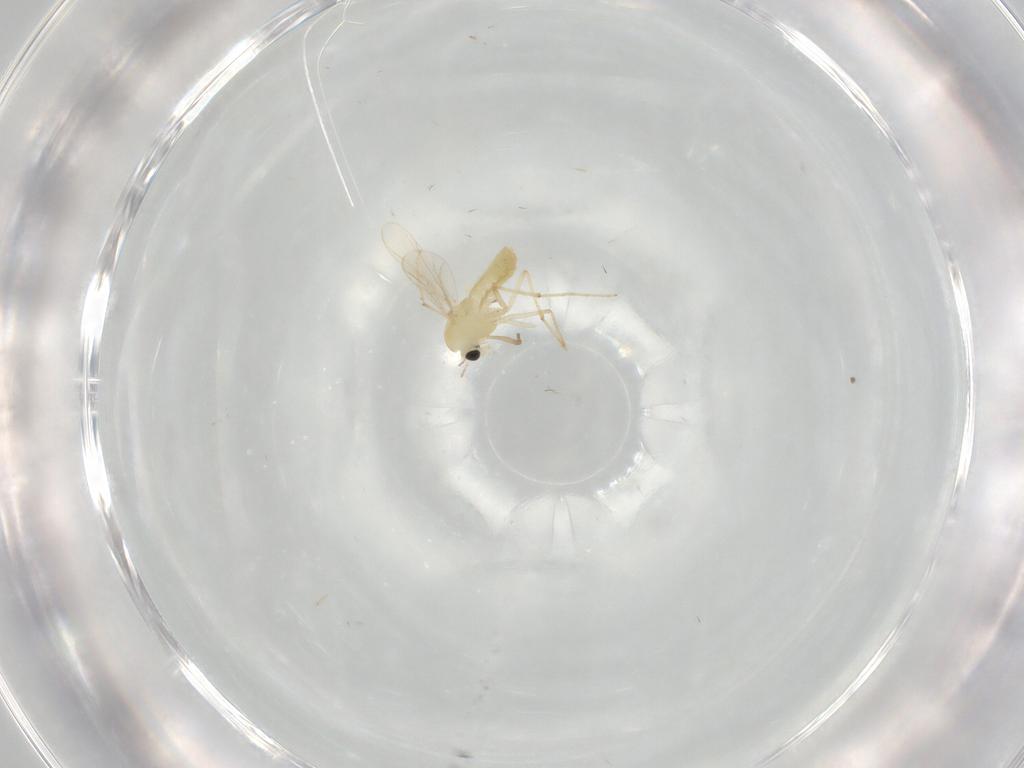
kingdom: Animalia
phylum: Arthropoda
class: Insecta
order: Diptera
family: Chironomidae
